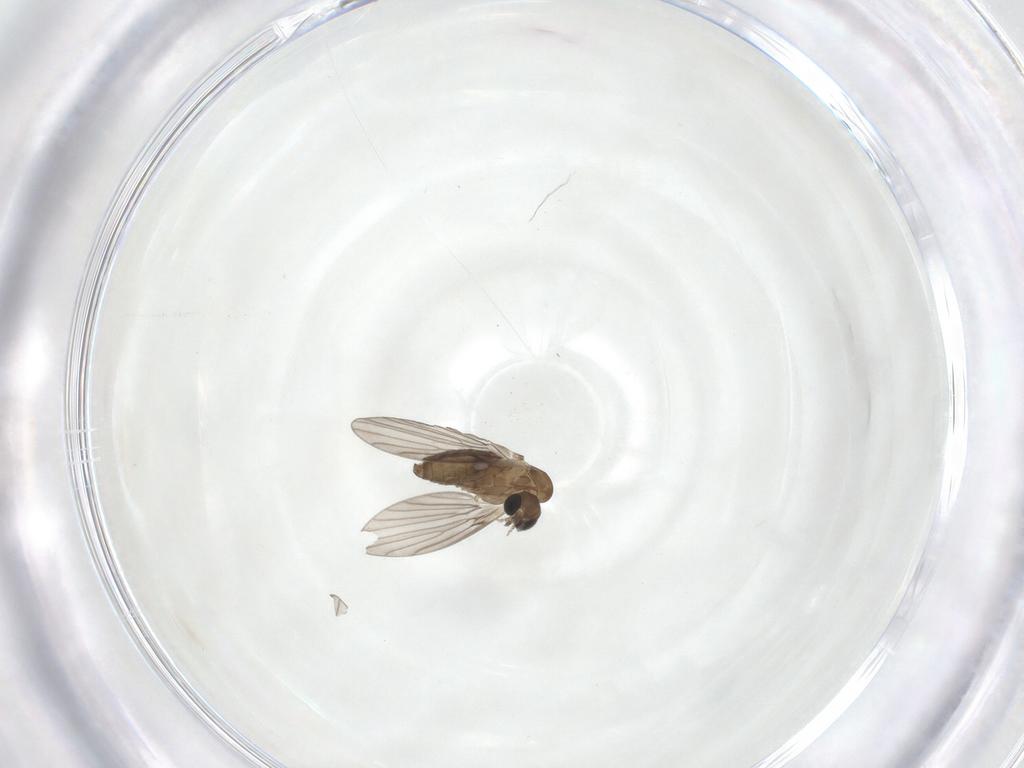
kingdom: Animalia
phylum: Arthropoda
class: Insecta
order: Diptera
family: Psychodidae
